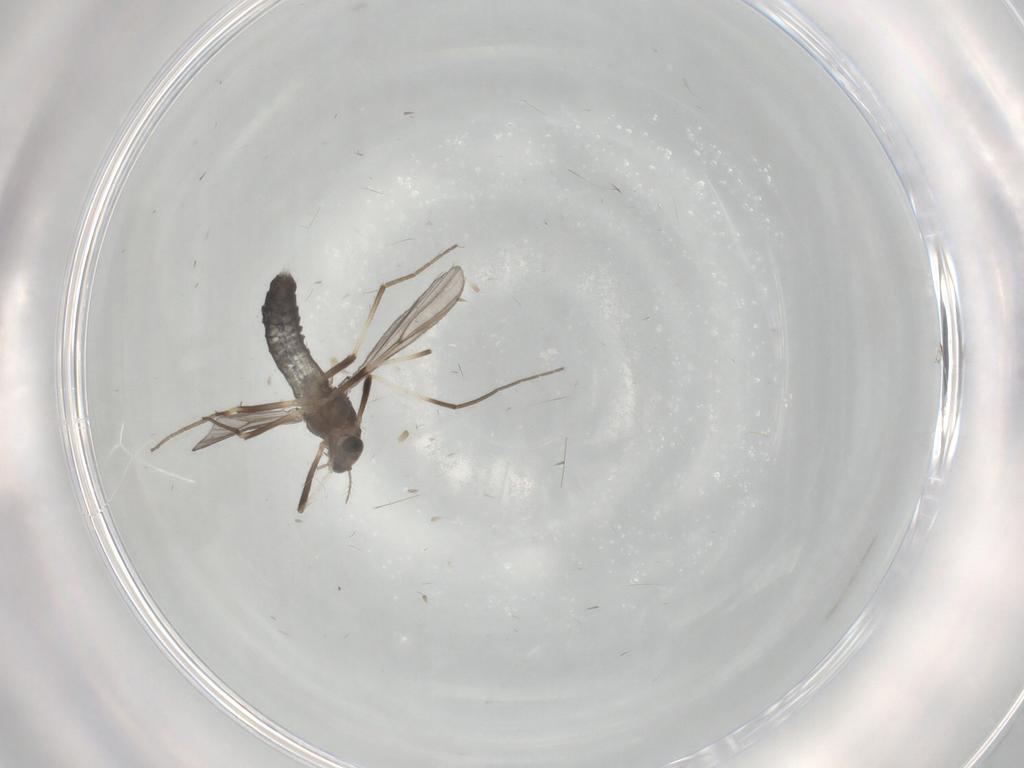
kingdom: Animalia
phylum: Arthropoda
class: Insecta
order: Diptera
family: Chironomidae
